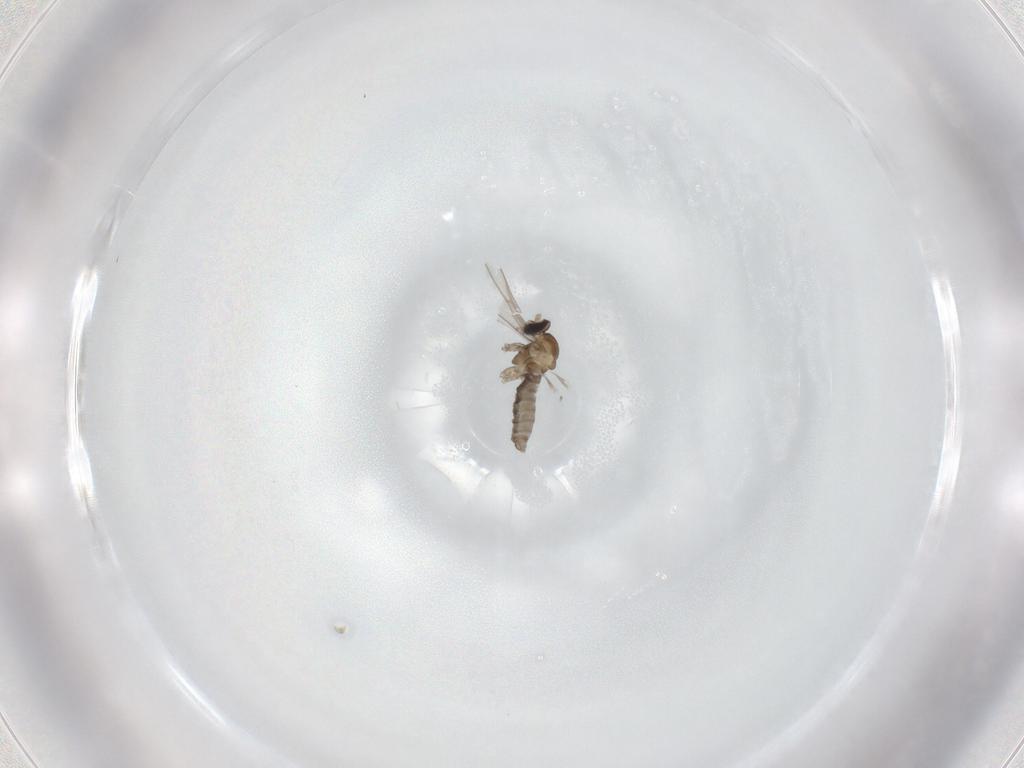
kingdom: Animalia
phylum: Arthropoda
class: Insecta
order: Diptera
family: Cecidomyiidae
